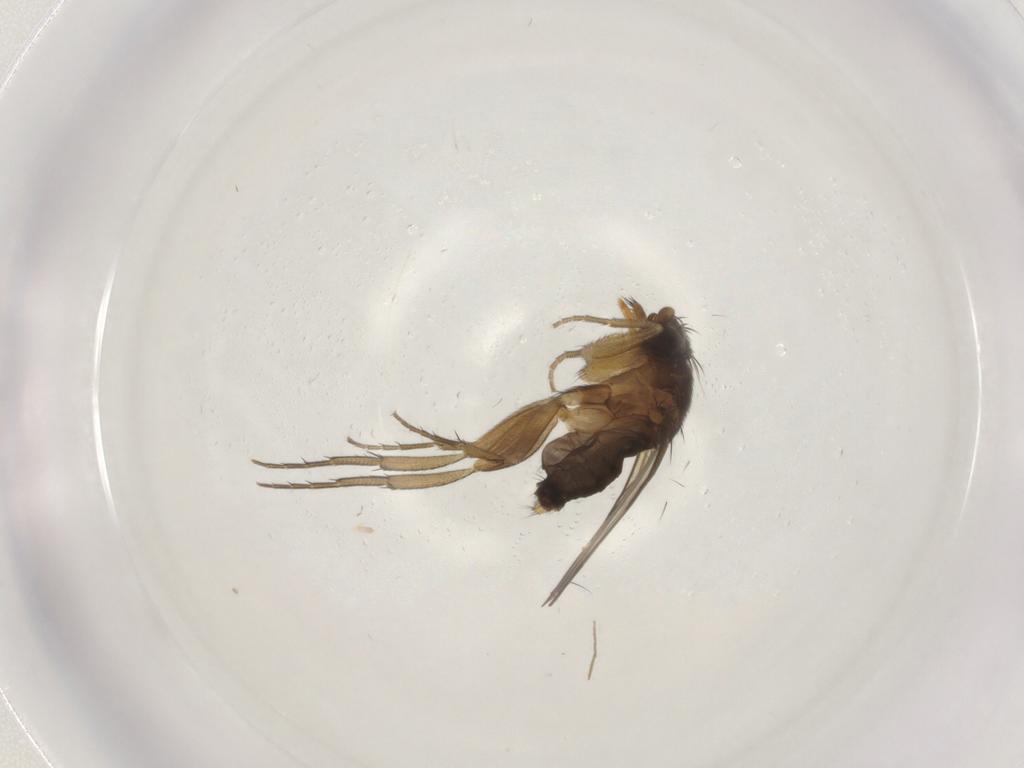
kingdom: Animalia
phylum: Arthropoda
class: Insecta
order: Diptera
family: Phoridae
